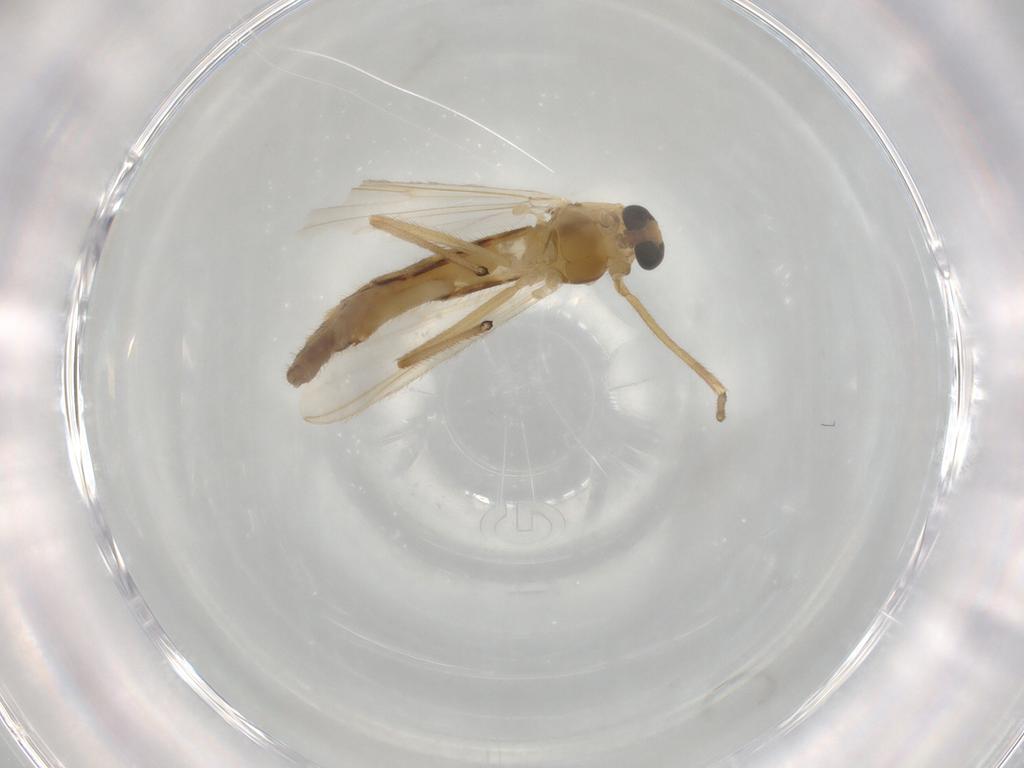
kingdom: Animalia
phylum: Arthropoda
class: Insecta
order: Diptera
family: Chironomidae
